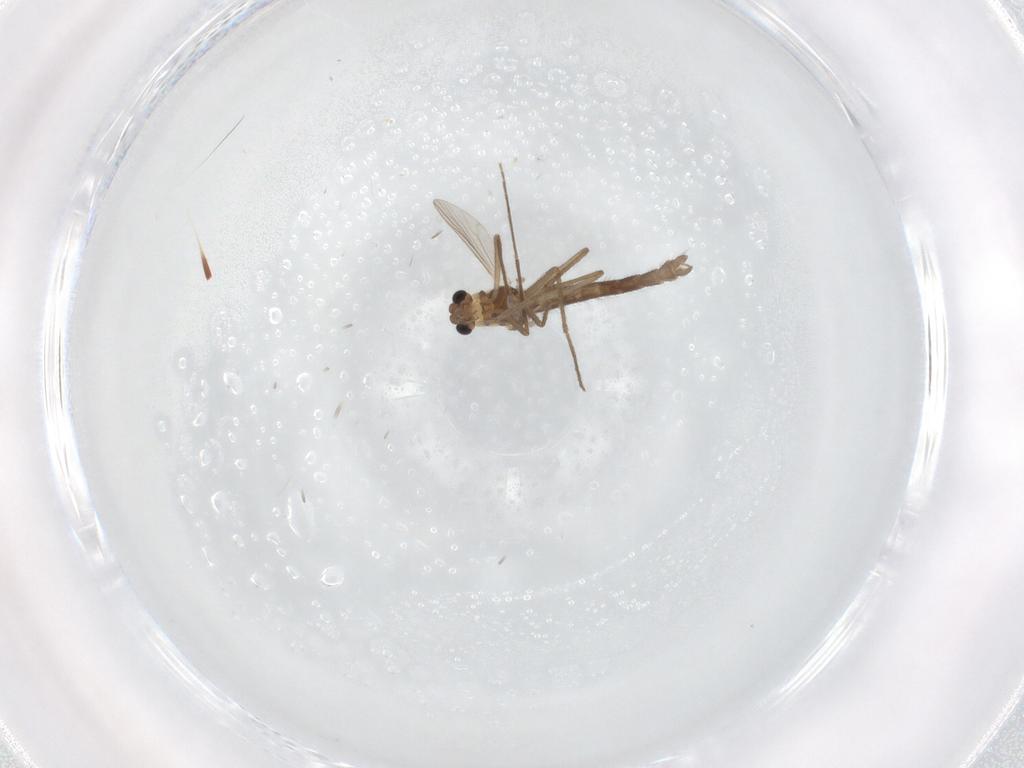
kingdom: Animalia
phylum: Arthropoda
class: Insecta
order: Diptera
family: Chironomidae
